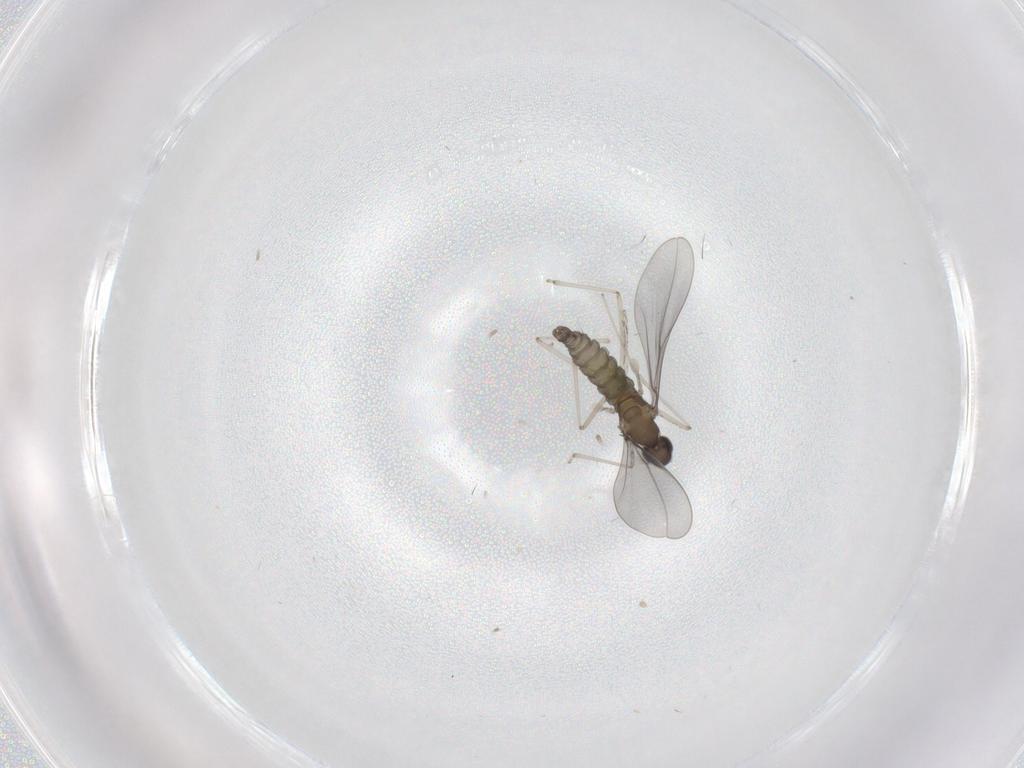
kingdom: Animalia
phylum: Arthropoda
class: Insecta
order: Diptera
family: Cecidomyiidae
